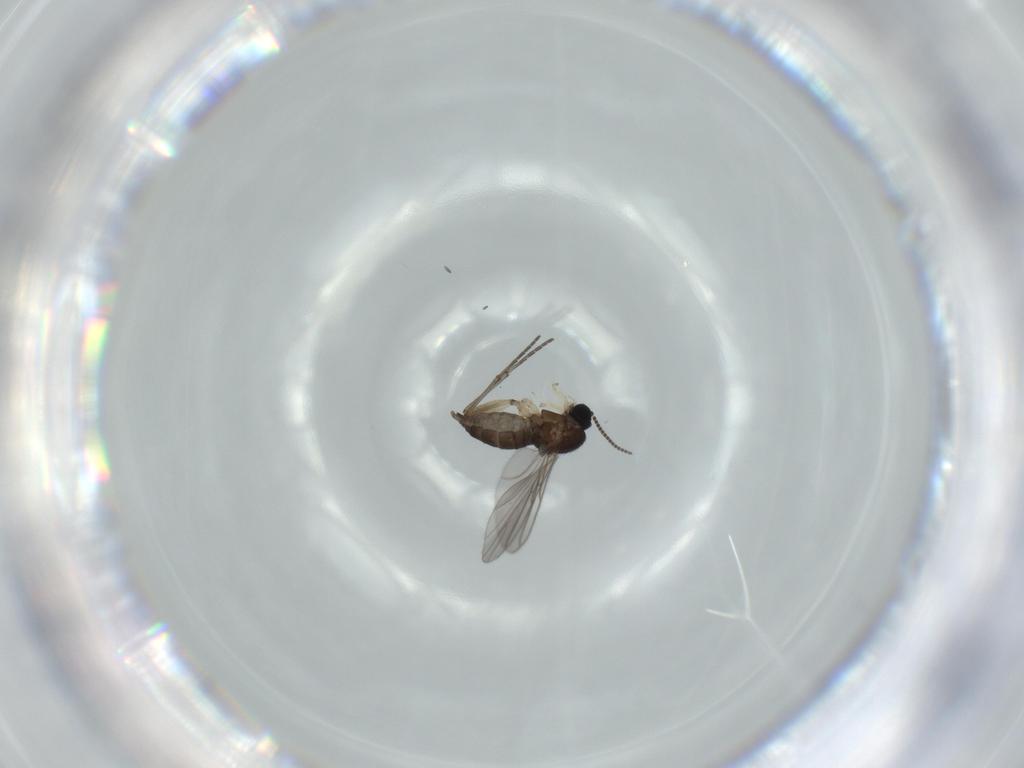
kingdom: Animalia
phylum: Arthropoda
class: Insecta
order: Diptera
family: Sciaridae
